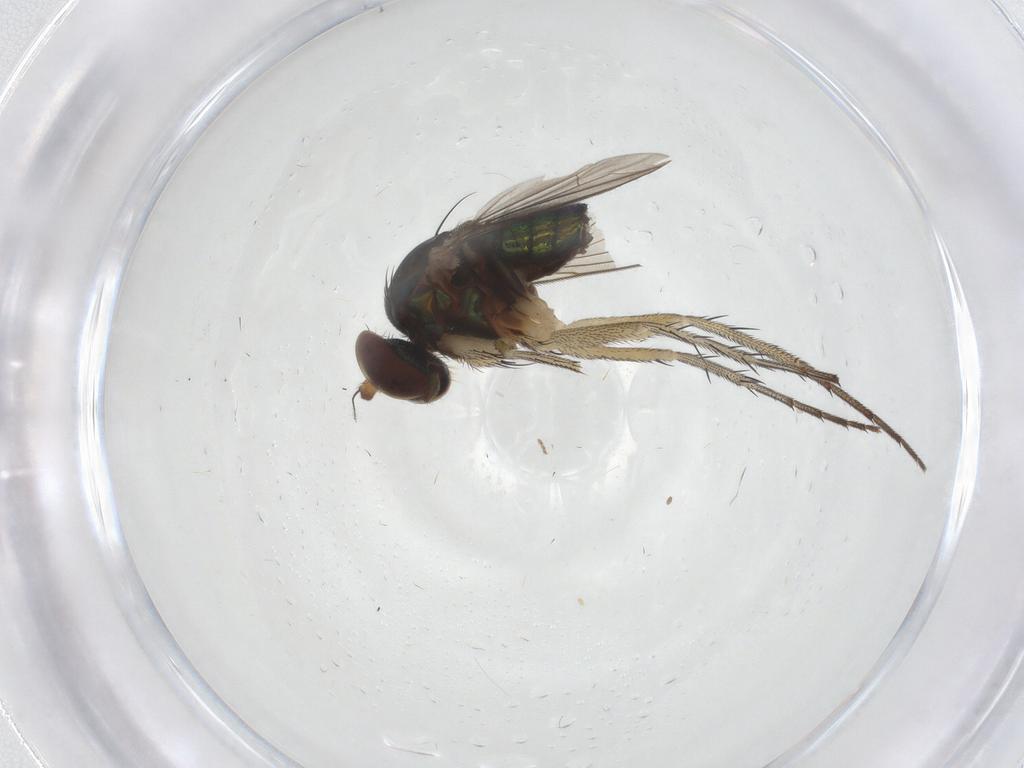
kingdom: Animalia
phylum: Arthropoda
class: Insecta
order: Diptera
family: Dolichopodidae
